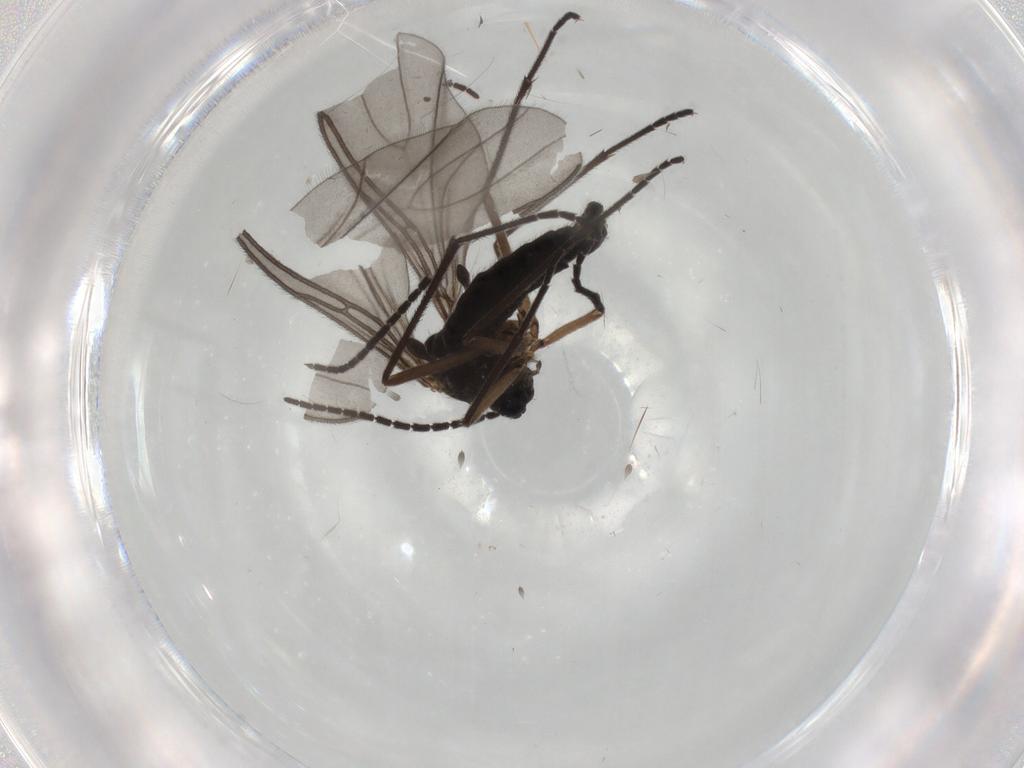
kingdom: Animalia
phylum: Arthropoda
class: Insecta
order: Diptera
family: Sciaridae
